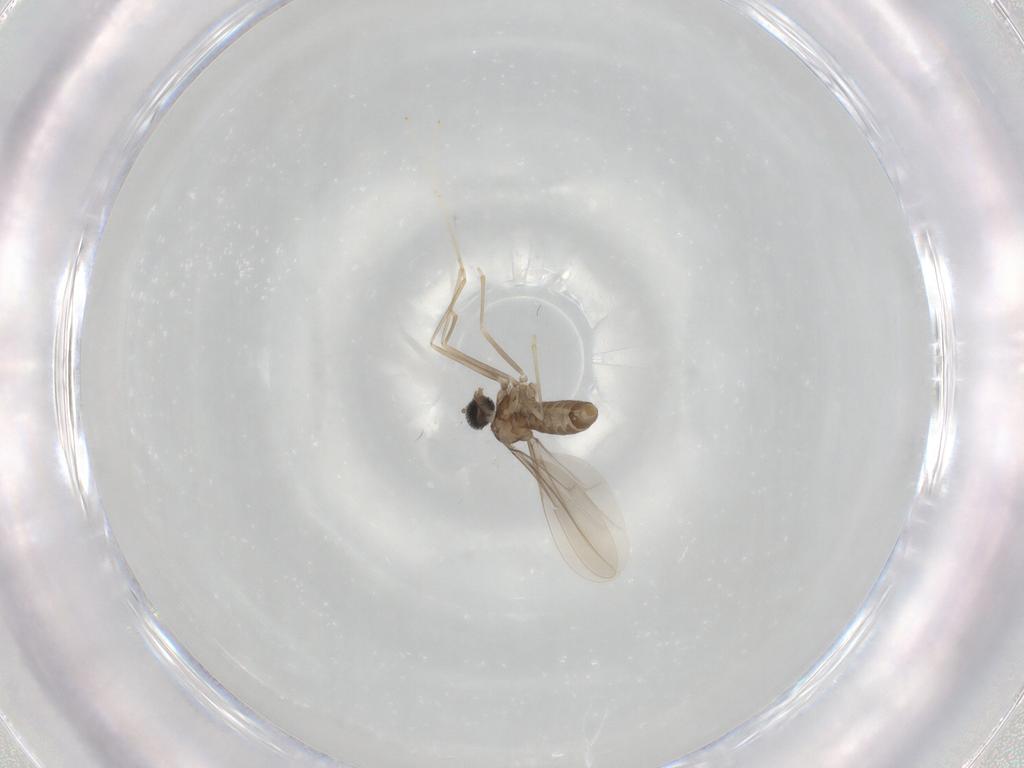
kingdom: Animalia
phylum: Arthropoda
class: Insecta
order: Diptera
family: Cecidomyiidae
